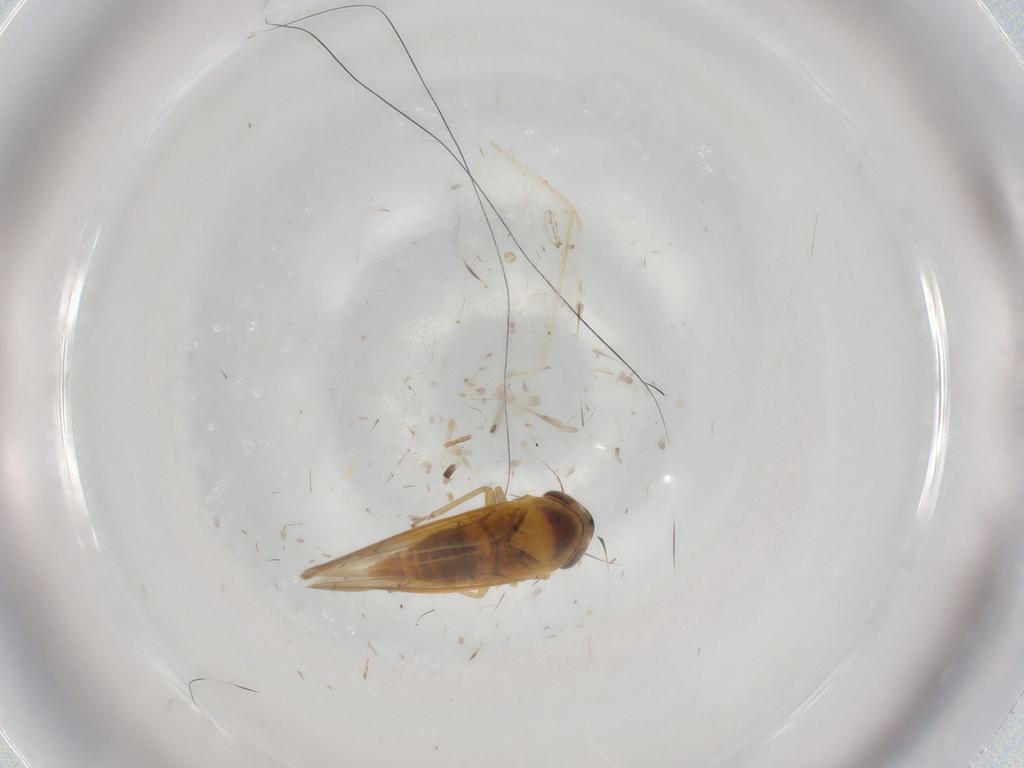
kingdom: Animalia
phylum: Arthropoda
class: Insecta
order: Hemiptera
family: Cicadellidae
